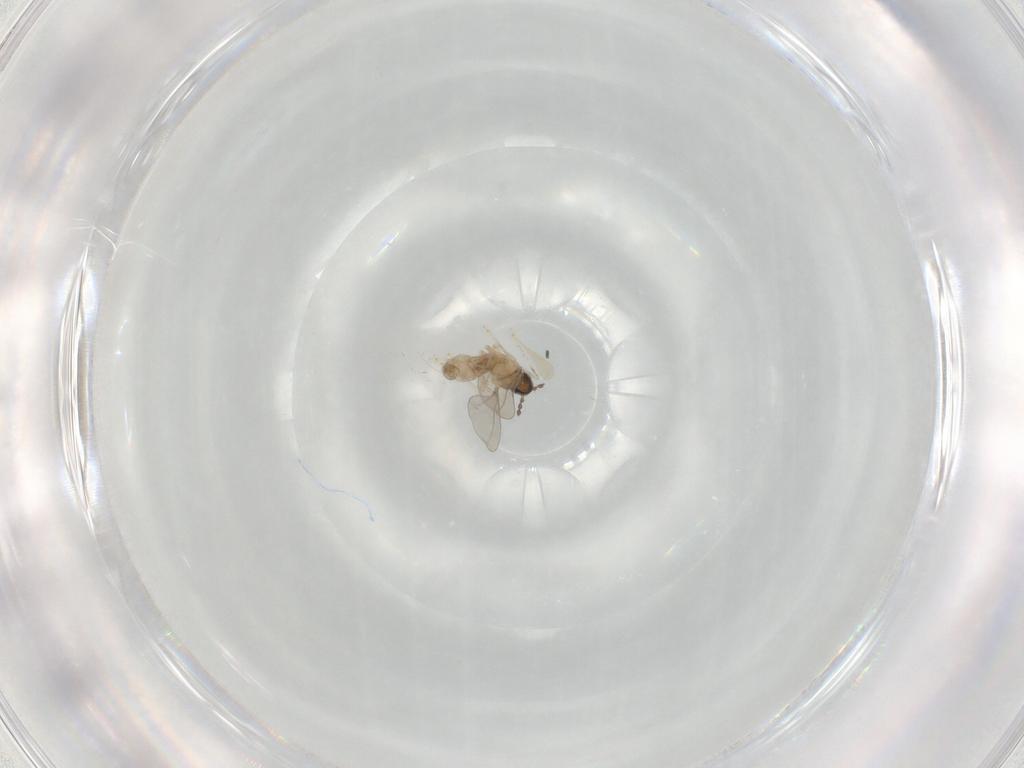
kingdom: Animalia
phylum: Arthropoda
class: Insecta
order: Diptera
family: Cecidomyiidae
